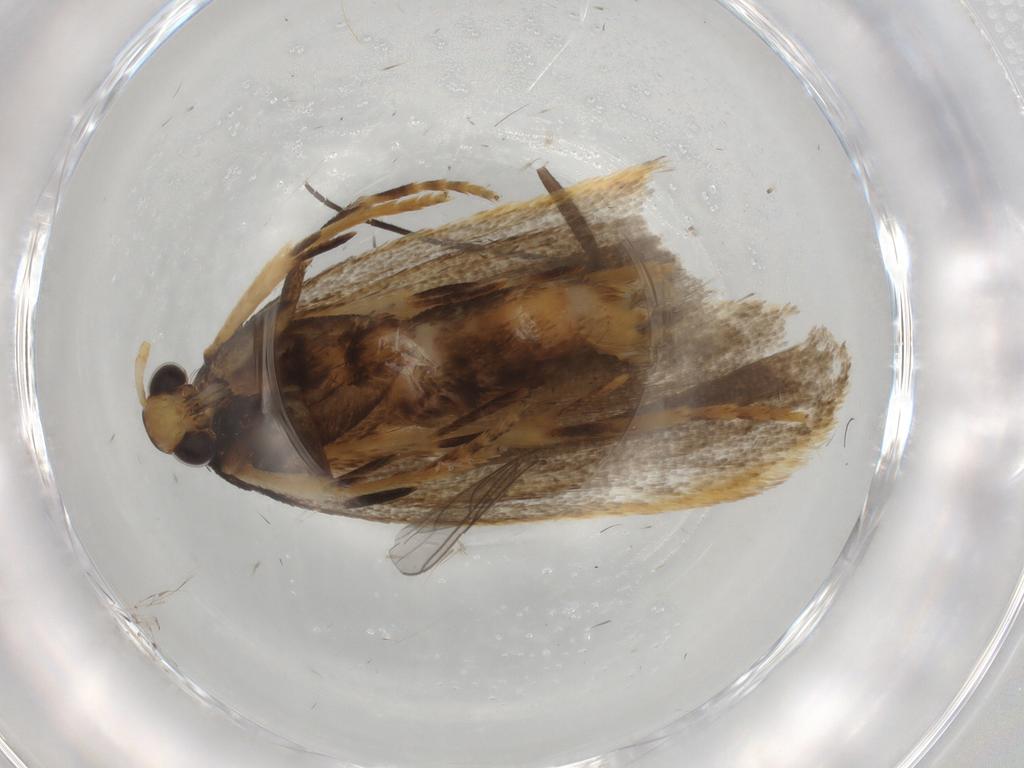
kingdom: Animalia
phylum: Arthropoda
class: Insecta
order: Lepidoptera
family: Lecithoceridae
